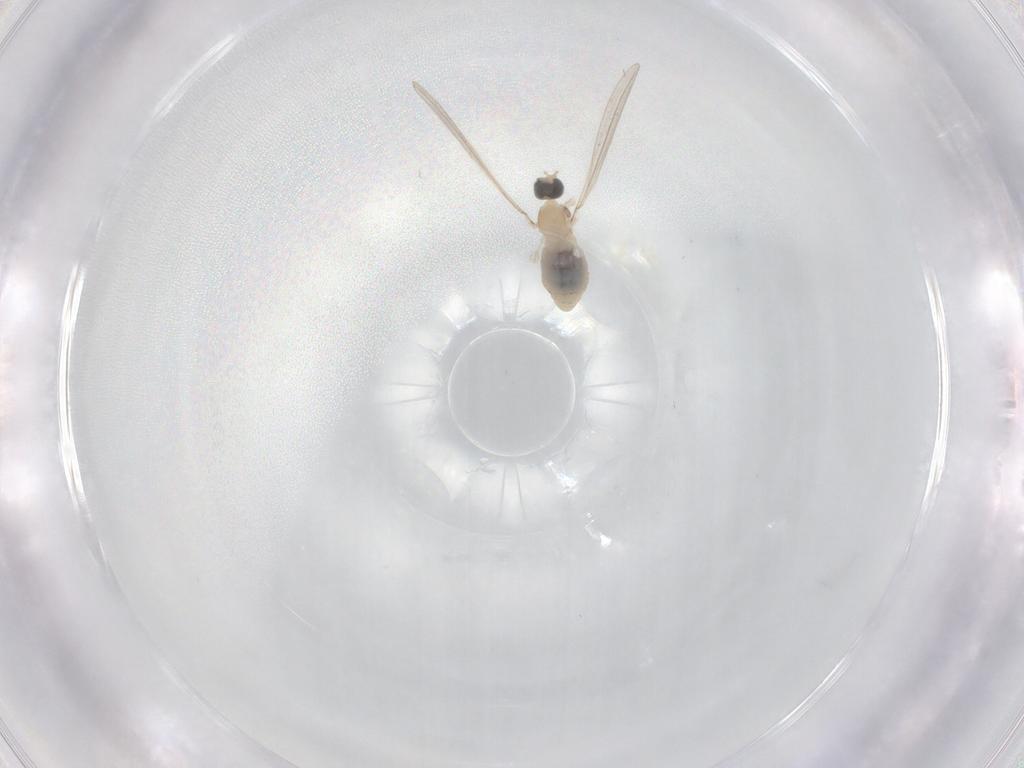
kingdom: Animalia
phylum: Arthropoda
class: Insecta
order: Diptera
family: Cecidomyiidae
